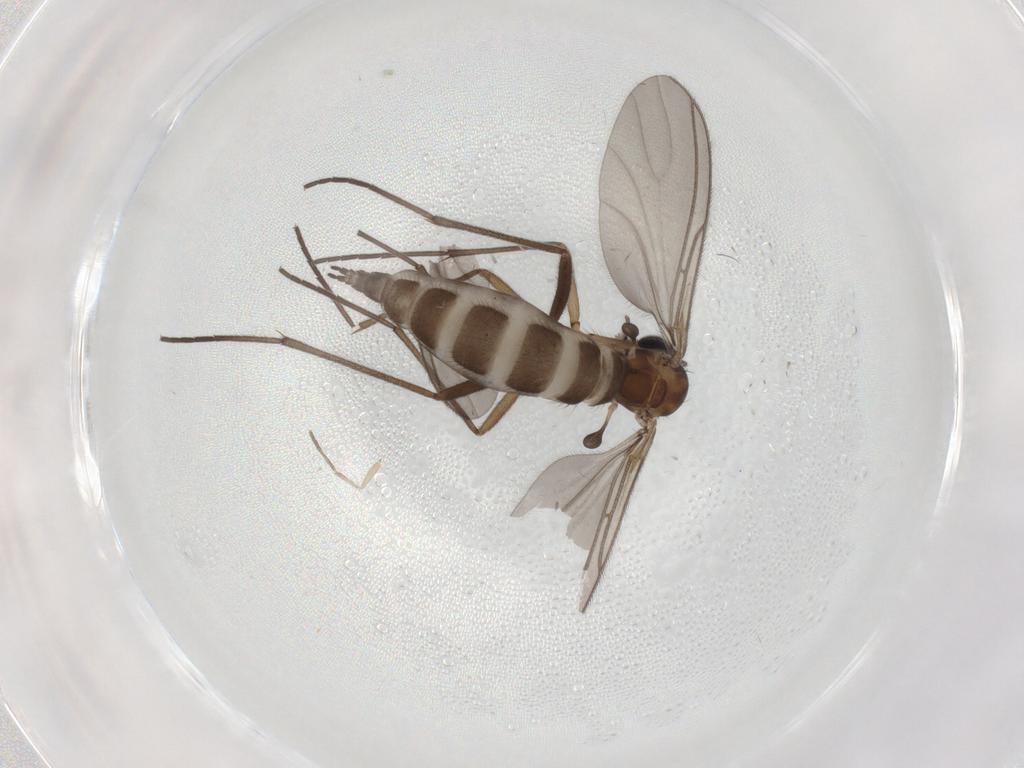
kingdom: Animalia
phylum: Arthropoda
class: Insecta
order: Diptera
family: Sciaridae
